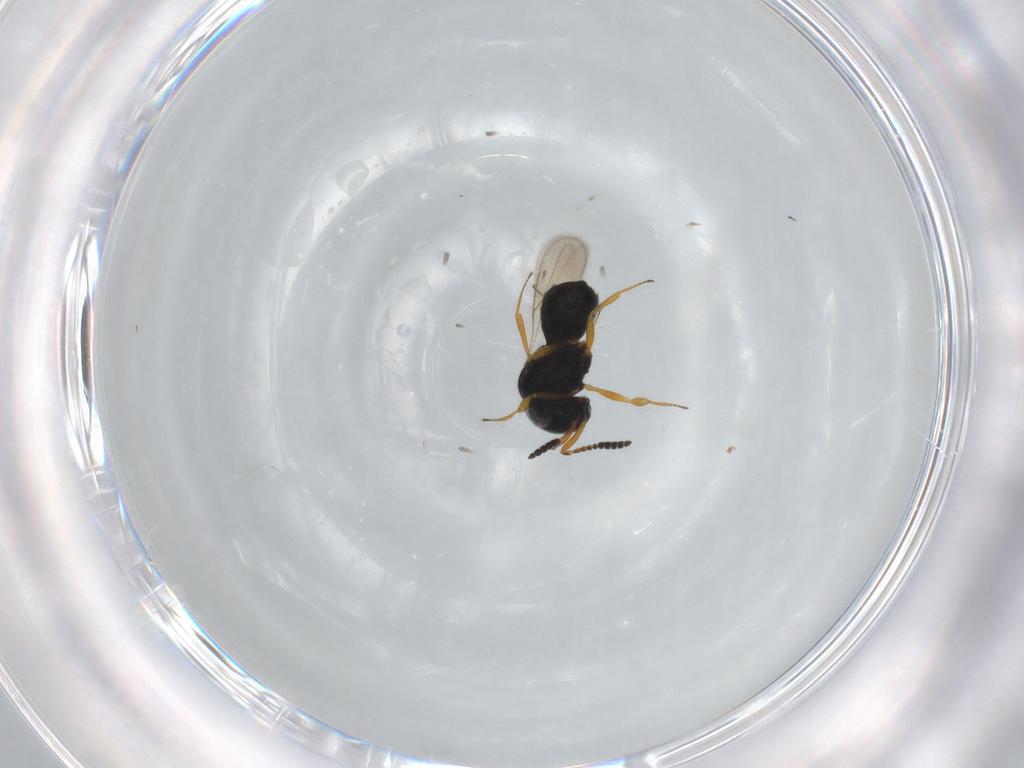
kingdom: Animalia
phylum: Arthropoda
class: Insecta
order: Hymenoptera
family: Scelionidae
